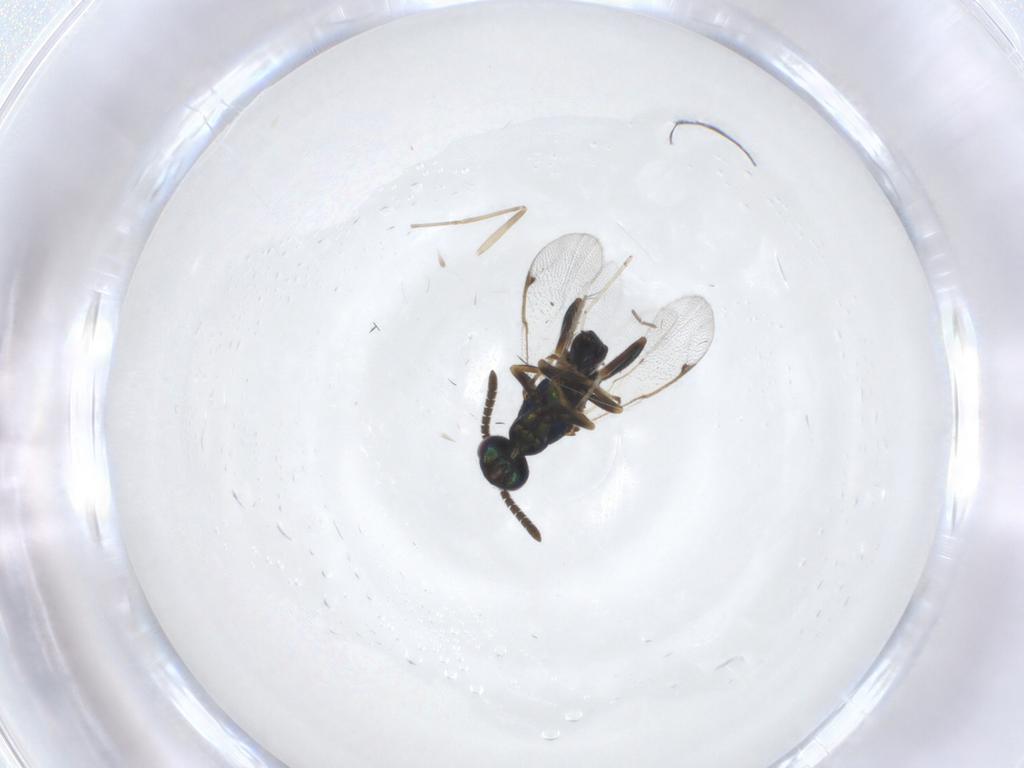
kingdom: Animalia
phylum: Arthropoda
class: Insecta
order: Hymenoptera
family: Torymidae
